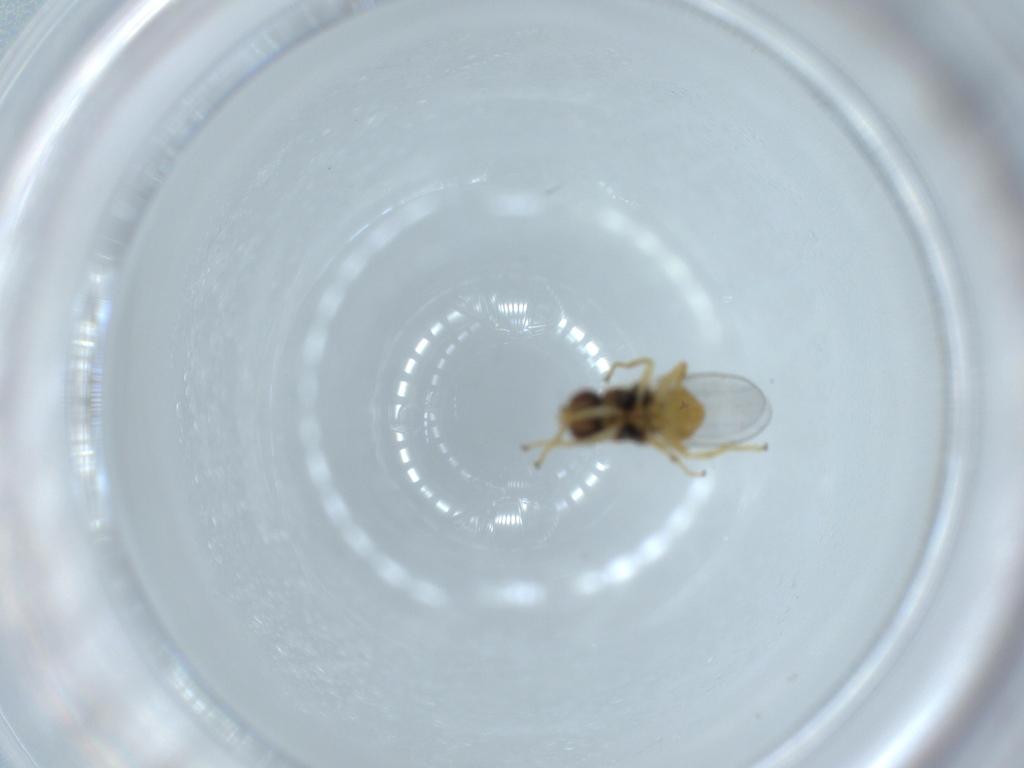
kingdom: Animalia
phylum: Arthropoda
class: Insecta
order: Diptera
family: Chloropidae
